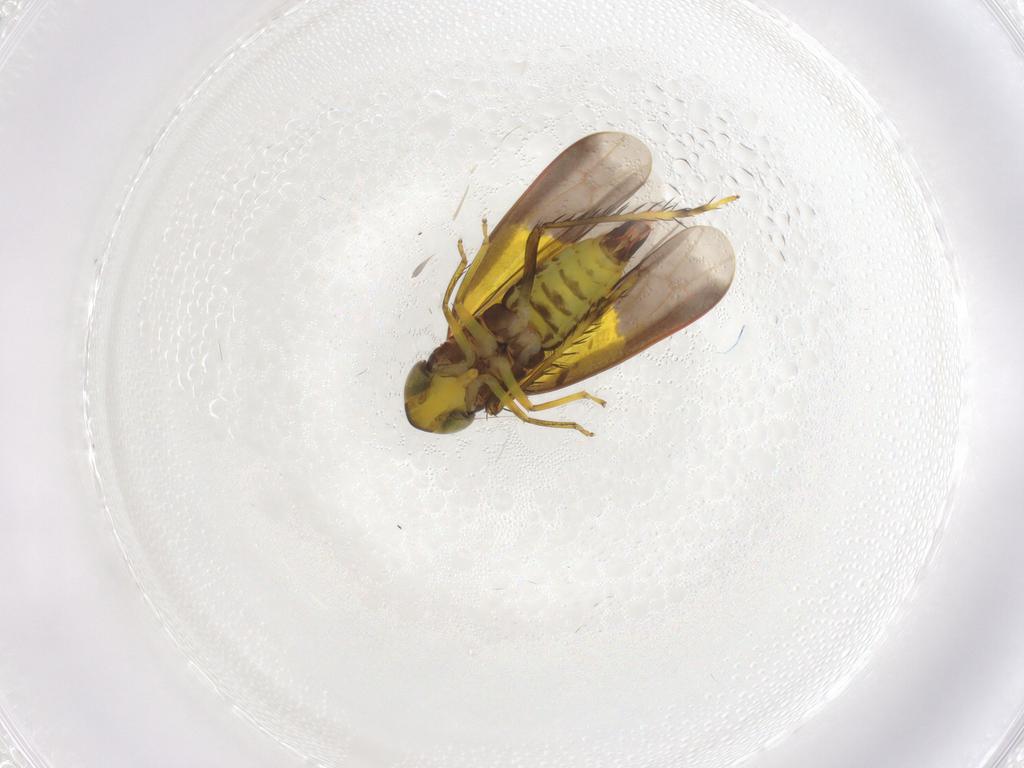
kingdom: Animalia
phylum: Arthropoda
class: Insecta
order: Hemiptera
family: Cicadellidae
